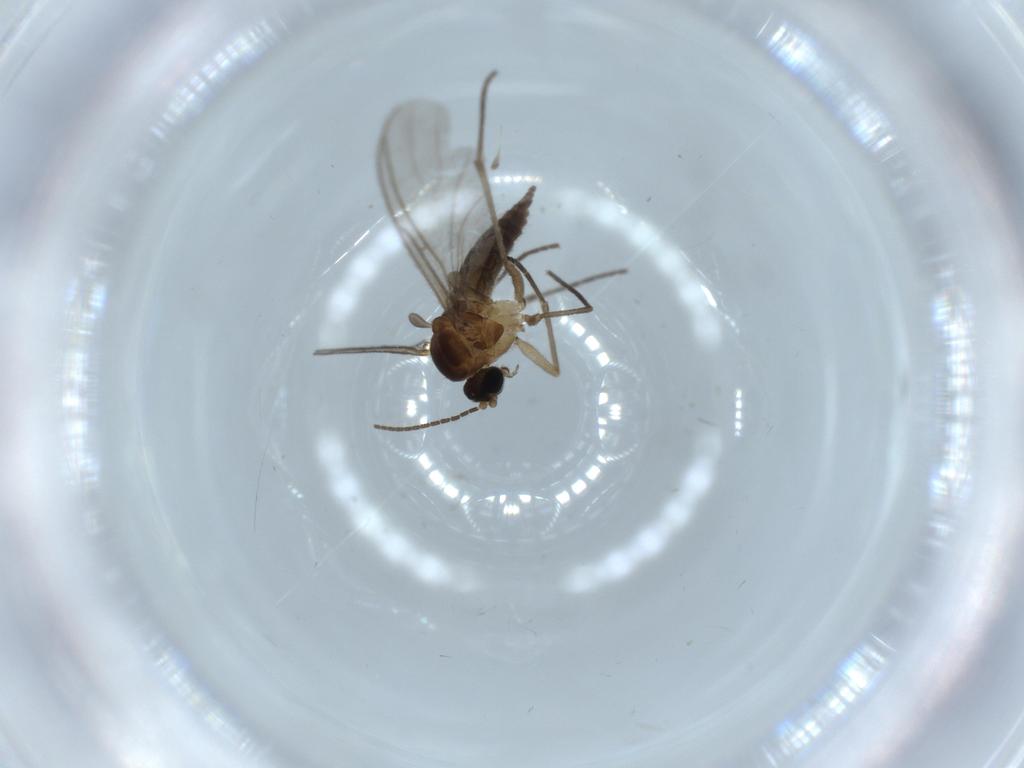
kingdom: Animalia
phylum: Arthropoda
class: Insecta
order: Diptera
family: Sciaridae
